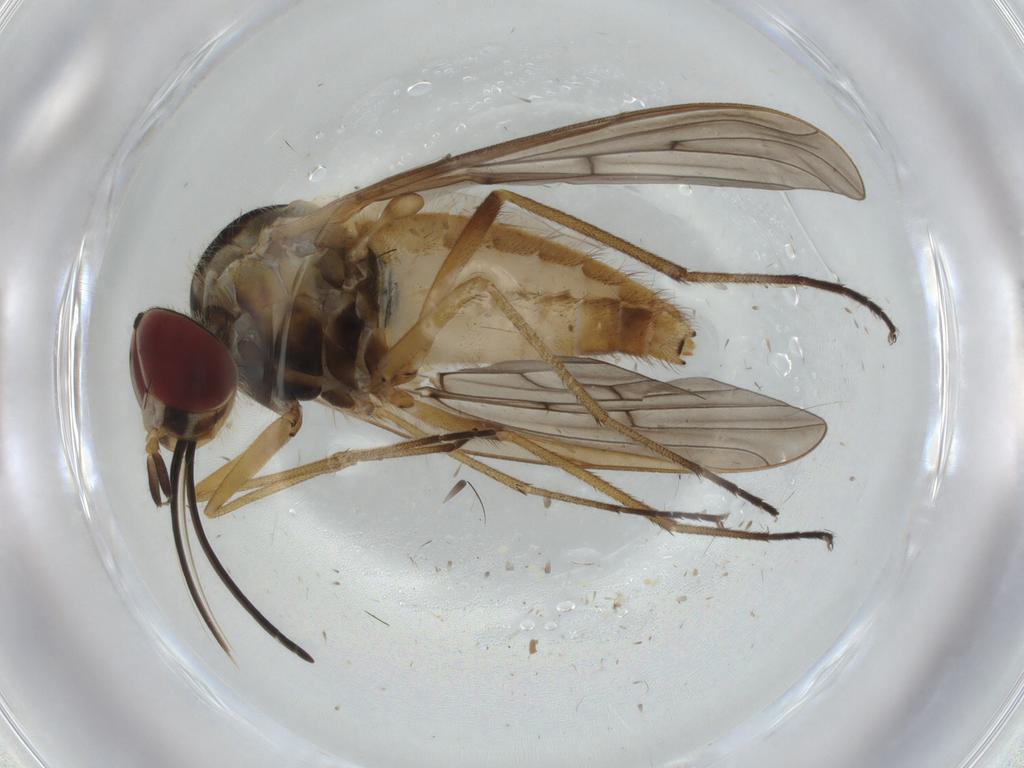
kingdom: Animalia
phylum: Arthropoda
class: Insecta
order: Diptera
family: Bombyliidae
